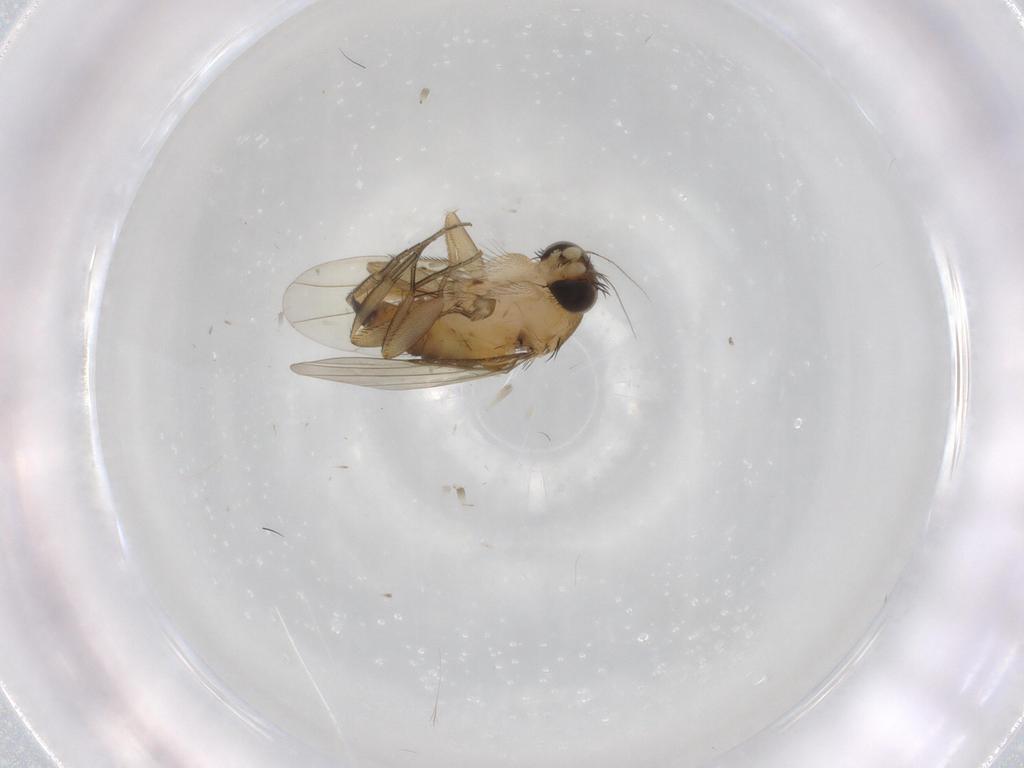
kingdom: Animalia
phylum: Arthropoda
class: Insecta
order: Diptera
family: Phoridae
